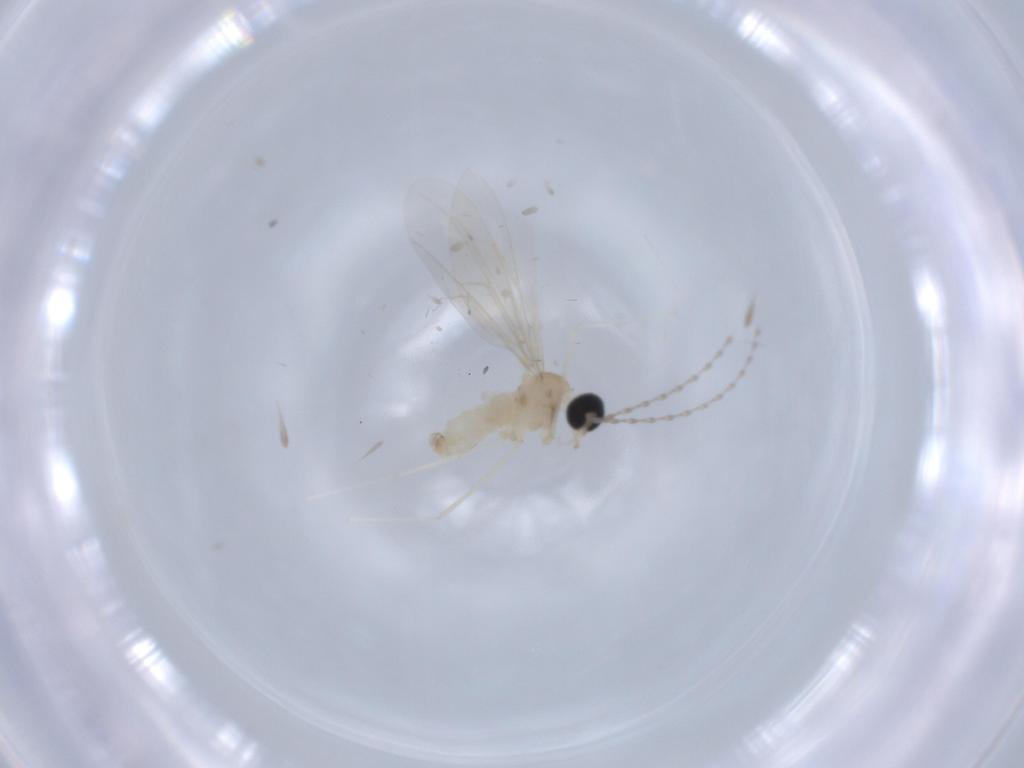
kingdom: Animalia
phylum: Arthropoda
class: Insecta
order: Diptera
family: Cecidomyiidae
